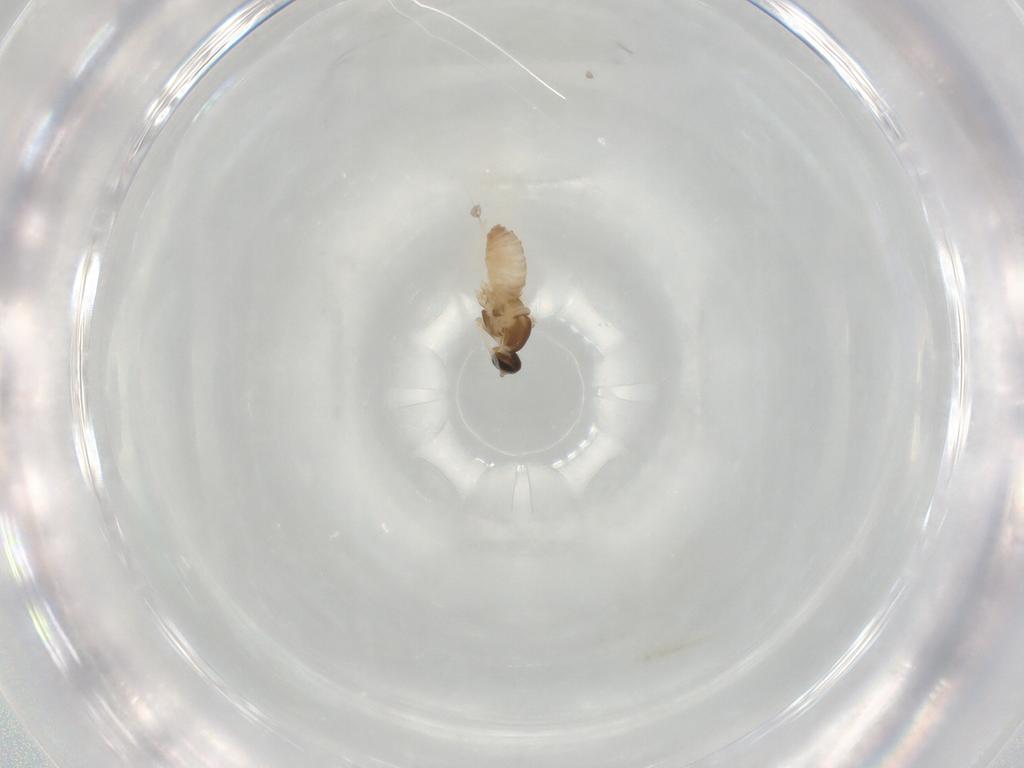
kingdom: Animalia
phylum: Arthropoda
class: Insecta
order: Diptera
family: Cecidomyiidae
